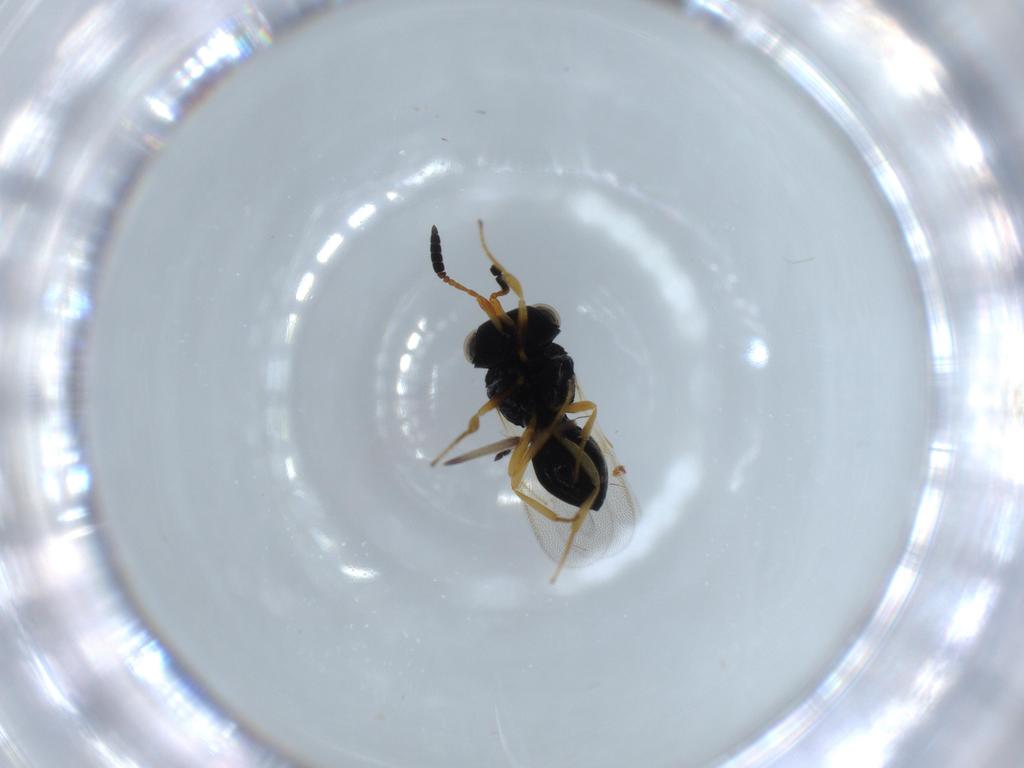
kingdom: Animalia
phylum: Arthropoda
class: Insecta
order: Hymenoptera
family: Scelionidae
